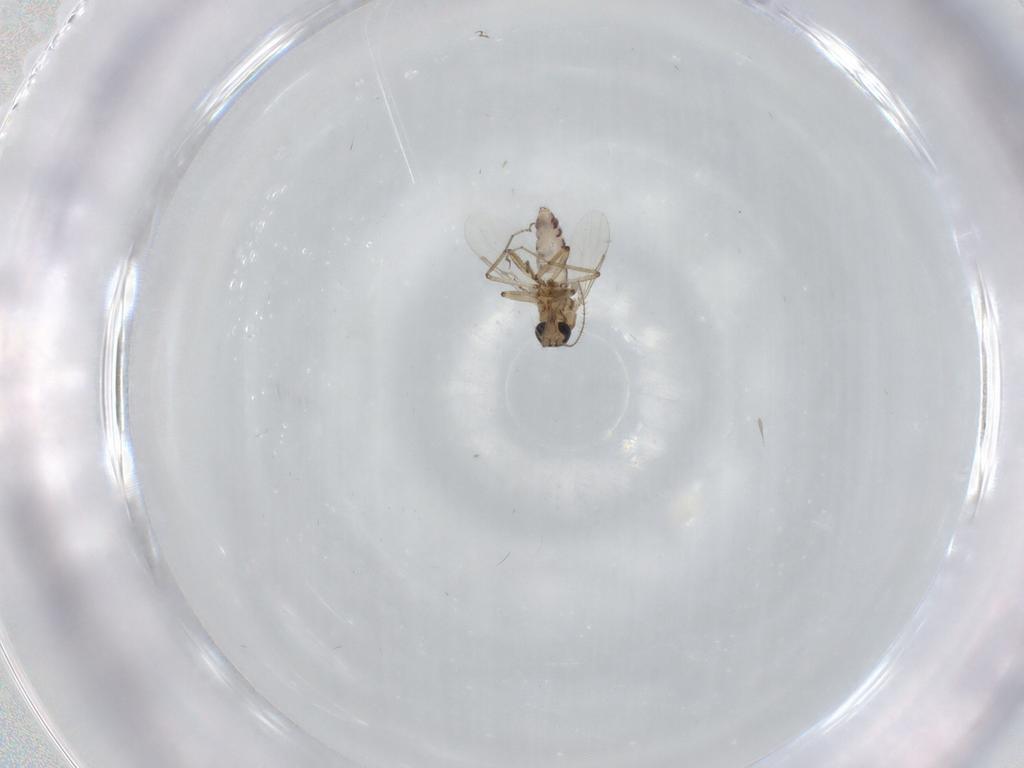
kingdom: Animalia
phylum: Arthropoda
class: Insecta
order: Diptera
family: Ceratopogonidae
